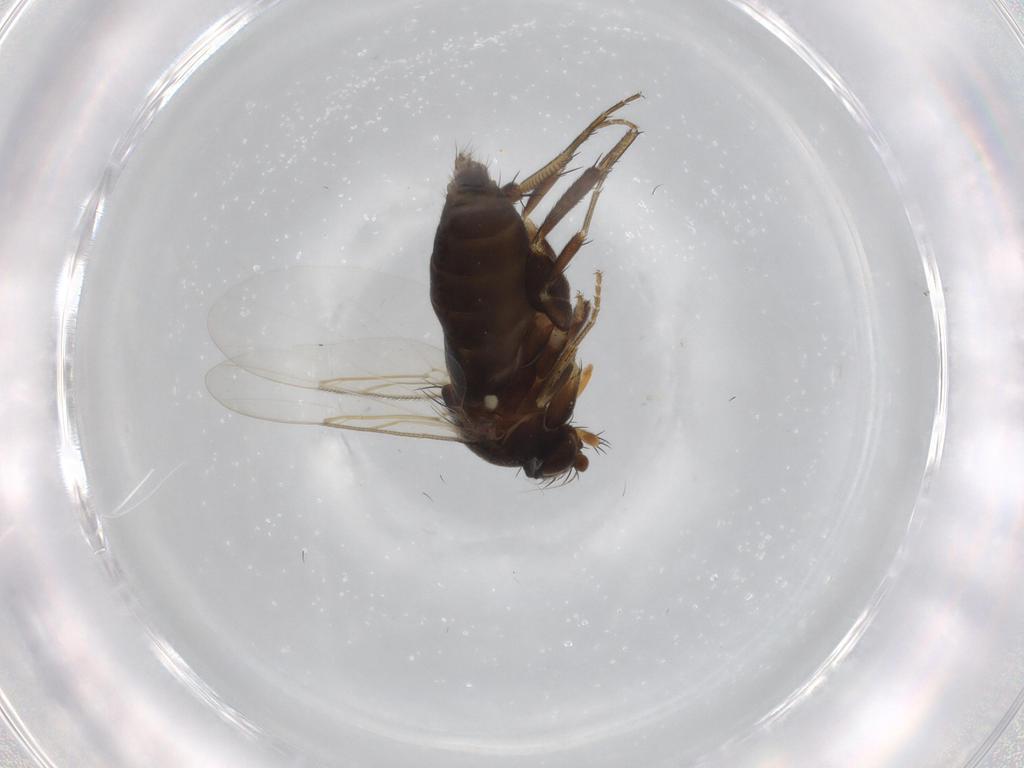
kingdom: Animalia
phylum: Arthropoda
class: Insecta
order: Diptera
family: Phoridae
